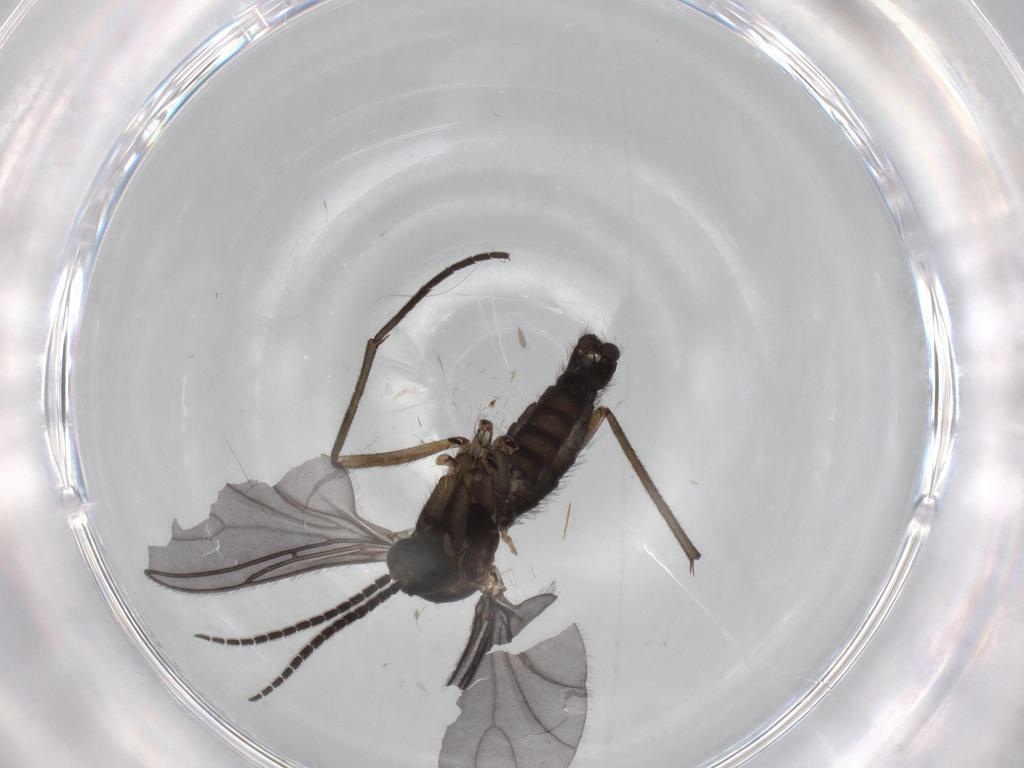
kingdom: Animalia
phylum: Arthropoda
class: Insecta
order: Diptera
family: Sciaridae
